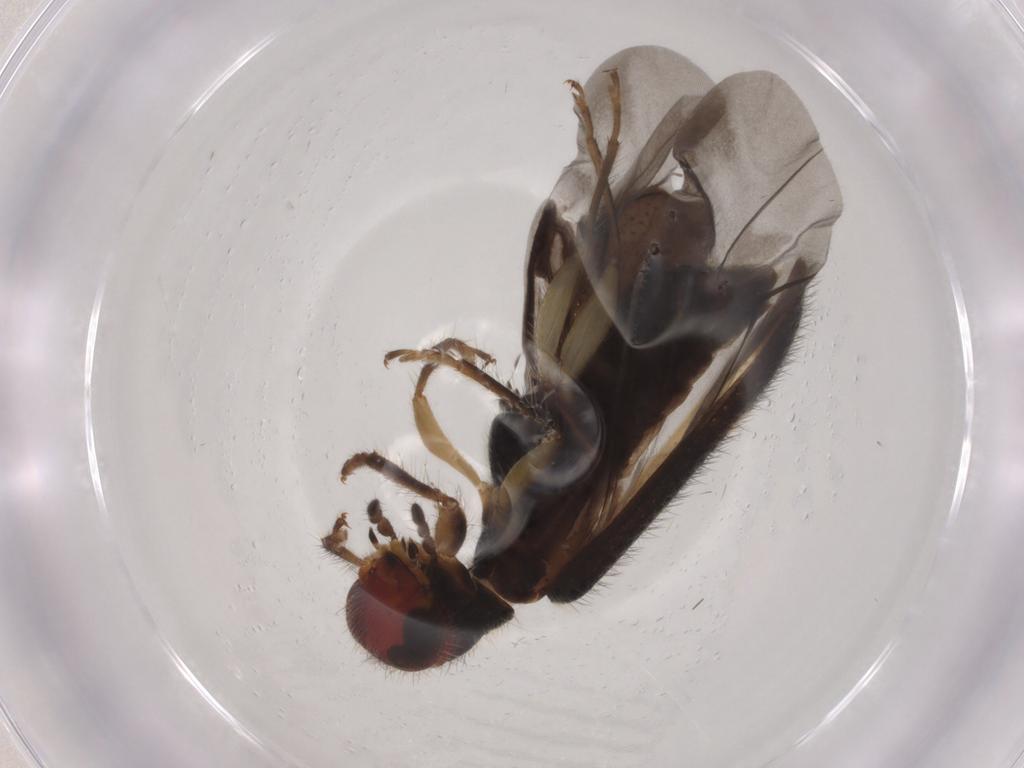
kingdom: Animalia
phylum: Arthropoda
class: Insecta
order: Coleoptera
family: Cleridae
